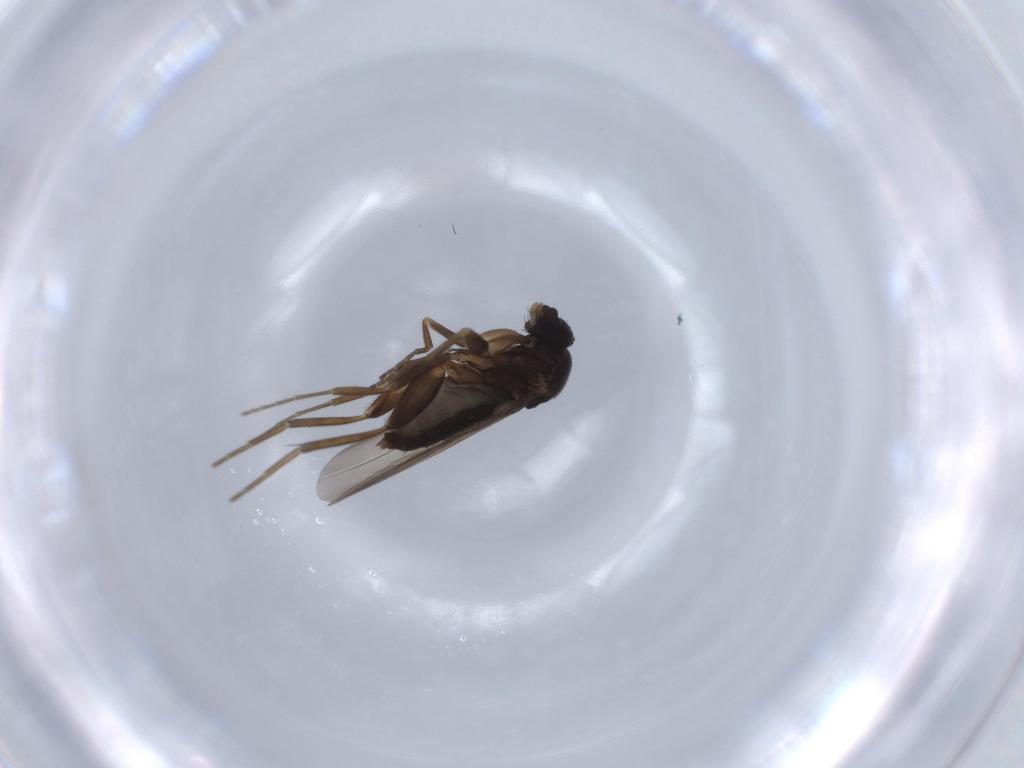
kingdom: Animalia
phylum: Arthropoda
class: Insecta
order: Diptera
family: Phoridae
